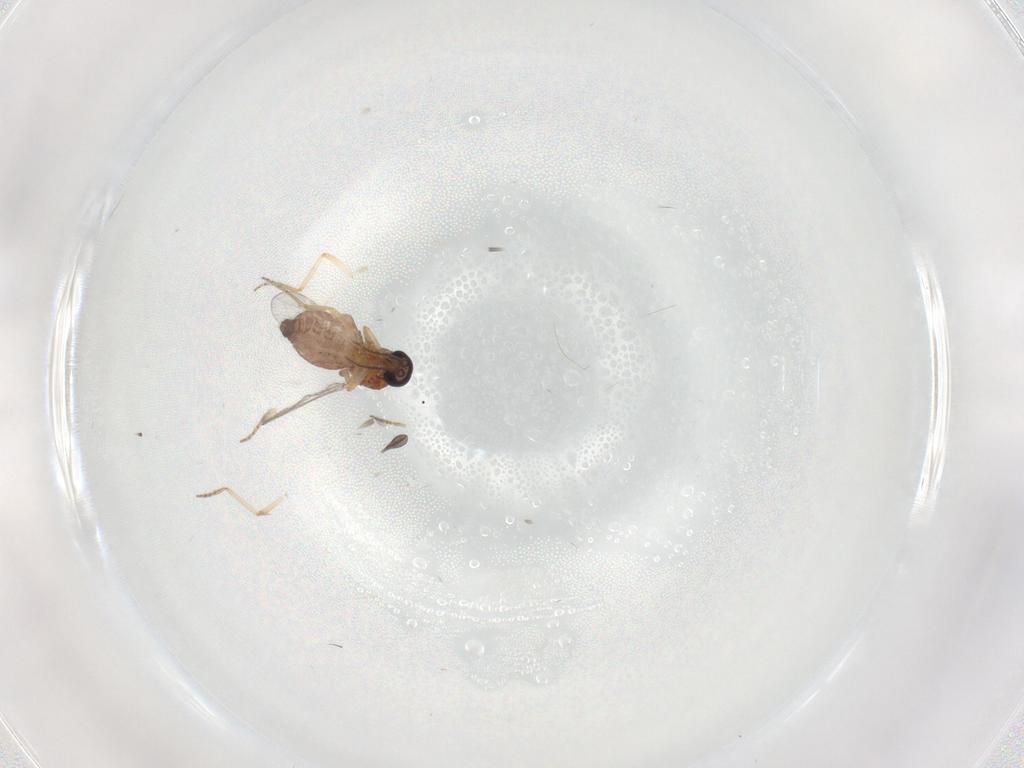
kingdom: Animalia
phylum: Arthropoda
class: Insecta
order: Diptera
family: Sciaridae
